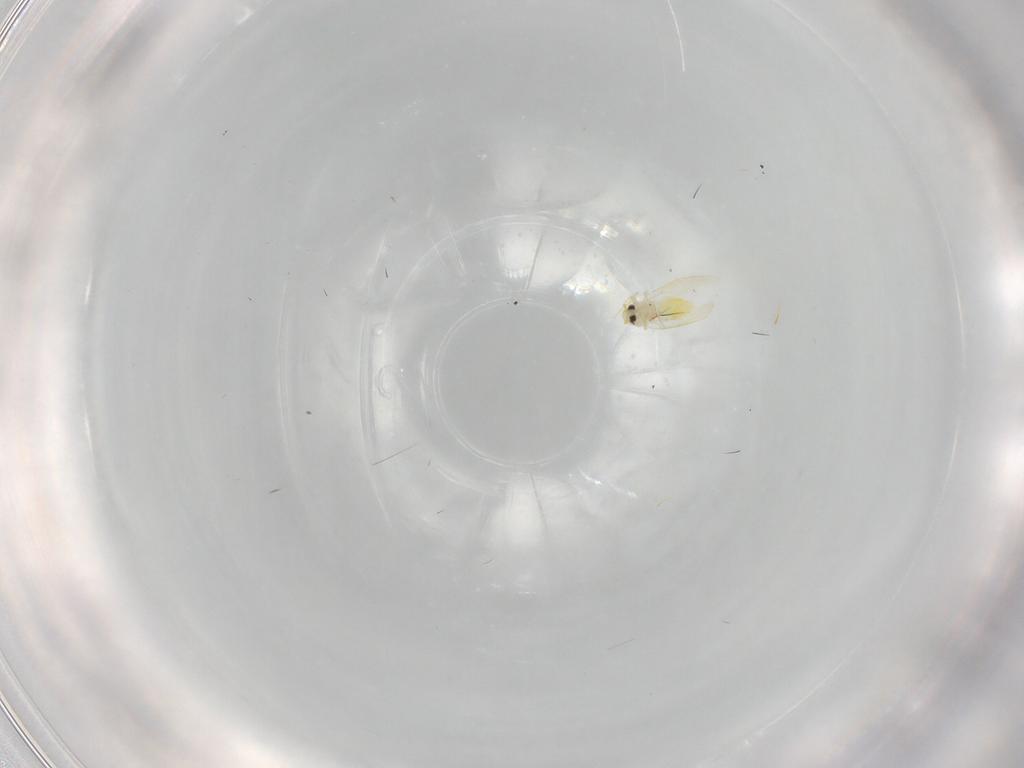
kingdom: Animalia
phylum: Arthropoda
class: Insecta
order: Hemiptera
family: Aleyrodidae
